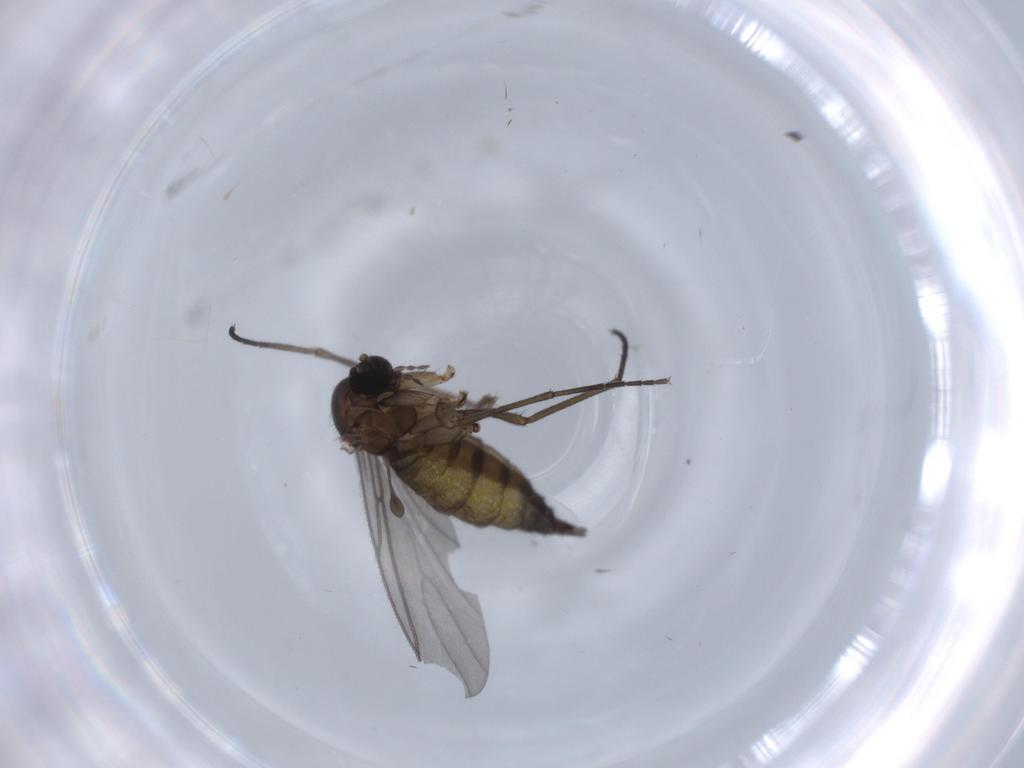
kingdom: Animalia
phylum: Arthropoda
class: Insecta
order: Diptera
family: Sciaridae
